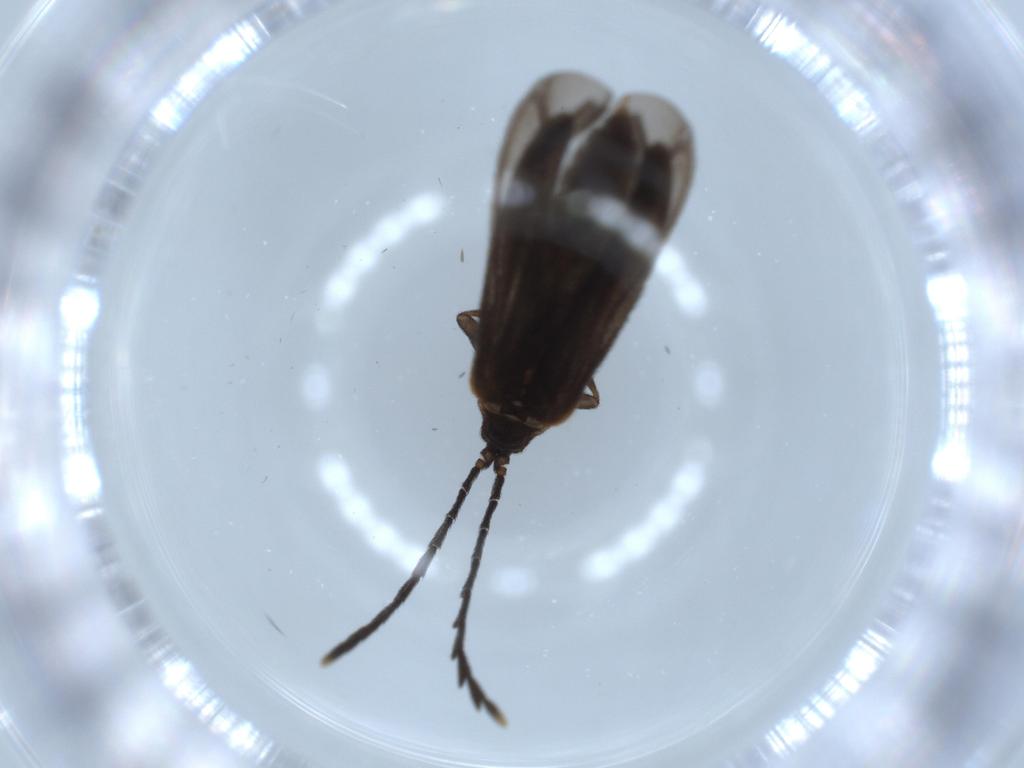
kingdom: Animalia
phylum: Arthropoda
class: Insecta
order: Coleoptera
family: Lycidae
